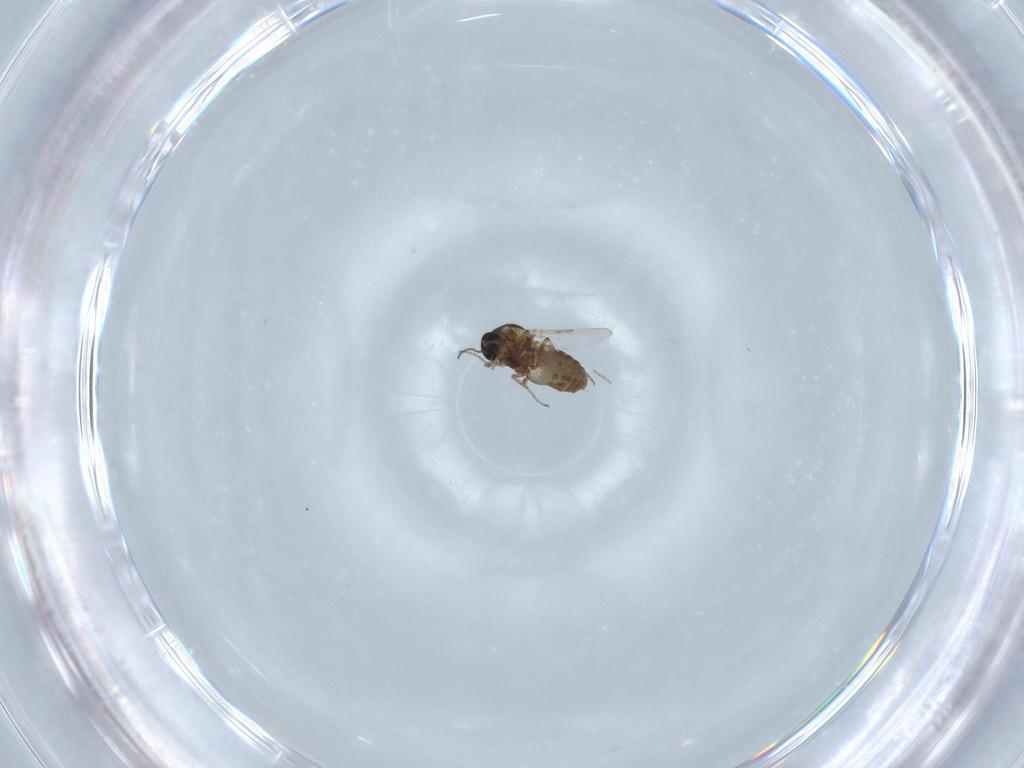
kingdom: Animalia
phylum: Arthropoda
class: Insecta
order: Diptera
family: Ceratopogonidae
